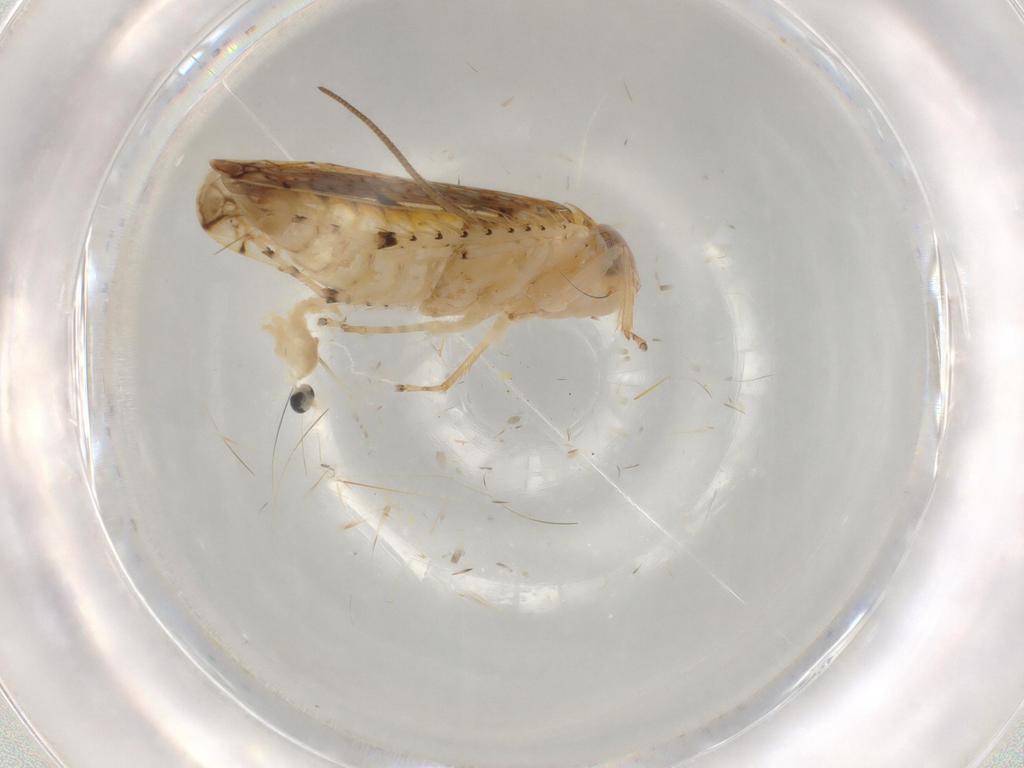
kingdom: Animalia
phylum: Arthropoda
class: Insecta
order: Hemiptera
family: Cicadellidae
